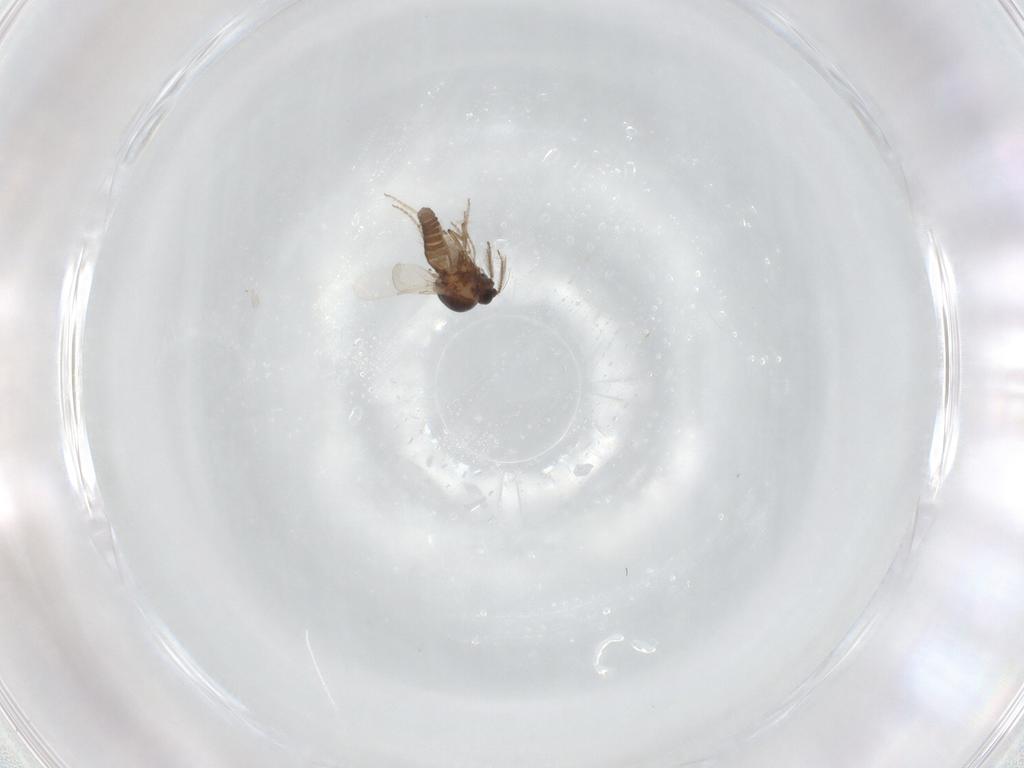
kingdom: Animalia
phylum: Arthropoda
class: Insecta
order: Diptera
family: Ceratopogonidae
